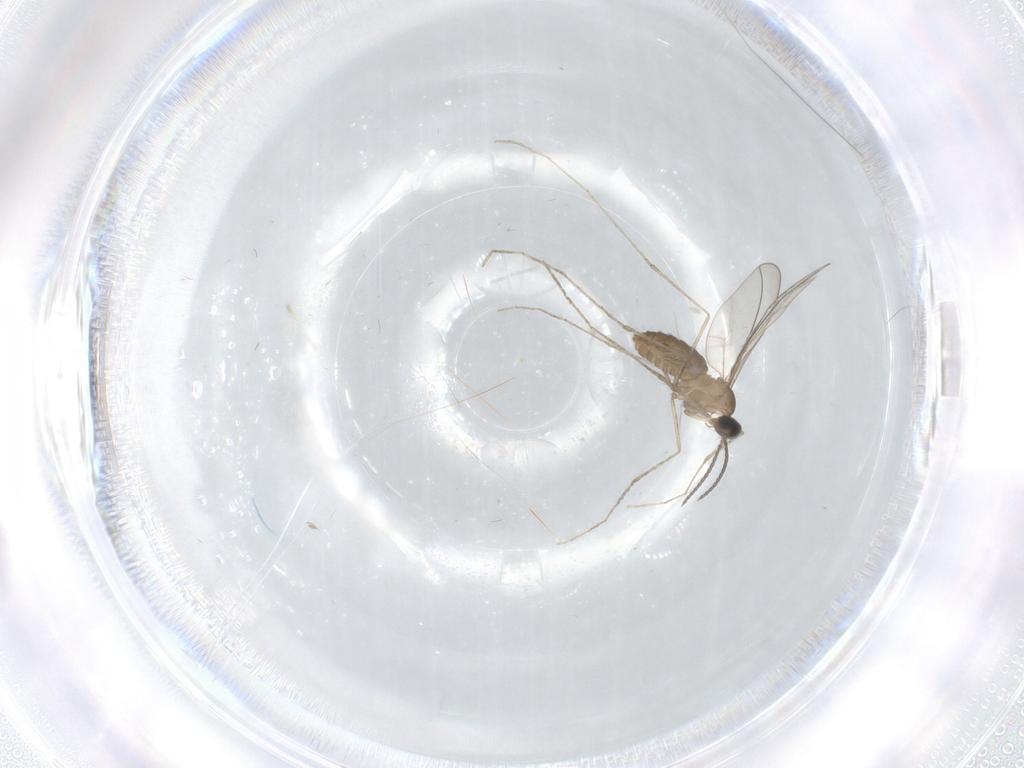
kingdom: Animalia
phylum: Arthropoda
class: Insecta
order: Diptera
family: Cecidomyiidae
